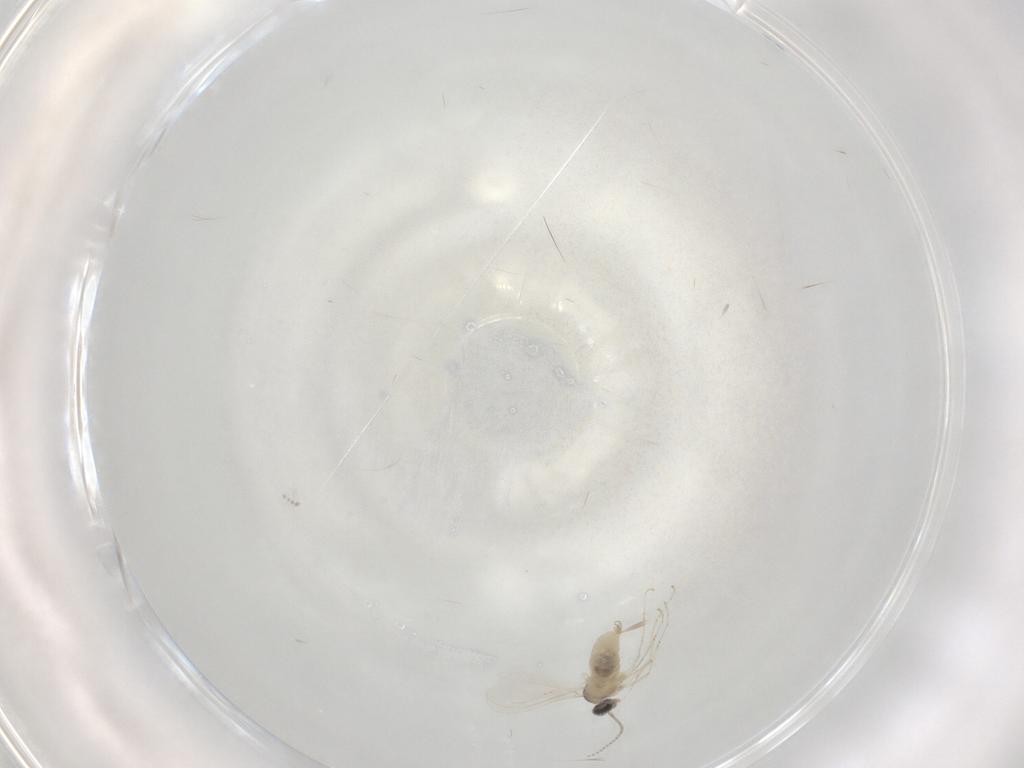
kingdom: Animalia
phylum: Arthropoda
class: Insecta
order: Diptera
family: Cecidomyiidae
